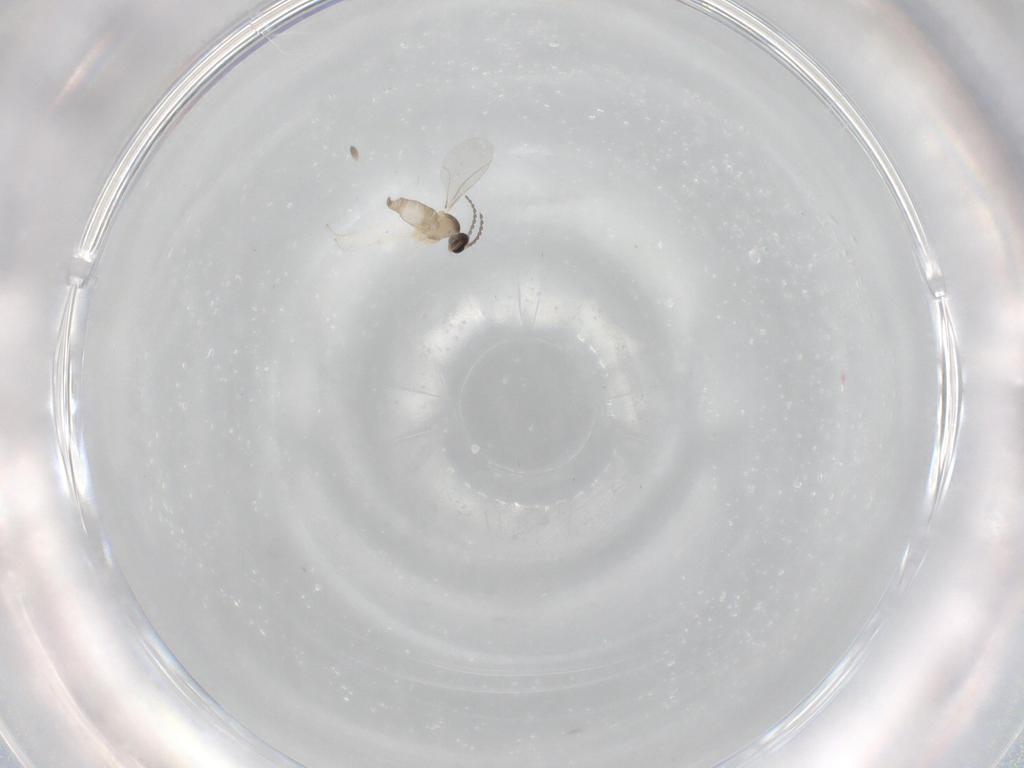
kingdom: Animalia
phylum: Arthropoda
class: Insecta
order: Diptera
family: Cecidomyiidae
